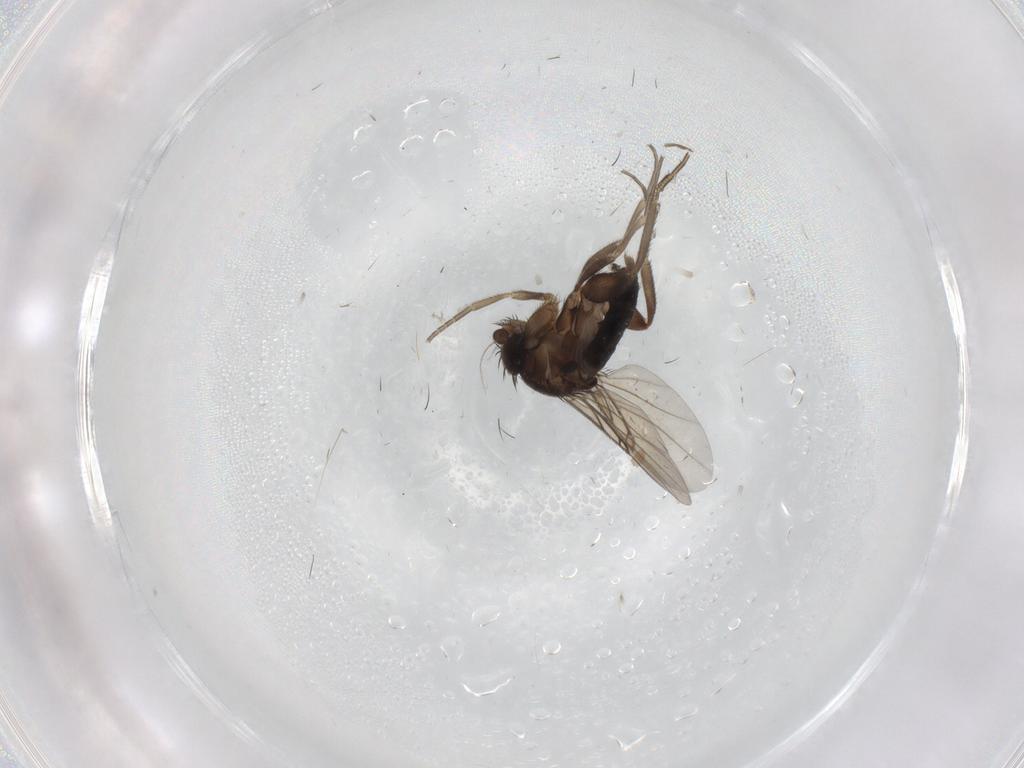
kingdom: Animalia
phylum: Arthropoda
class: Insecta
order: Diptera
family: Phoridae
